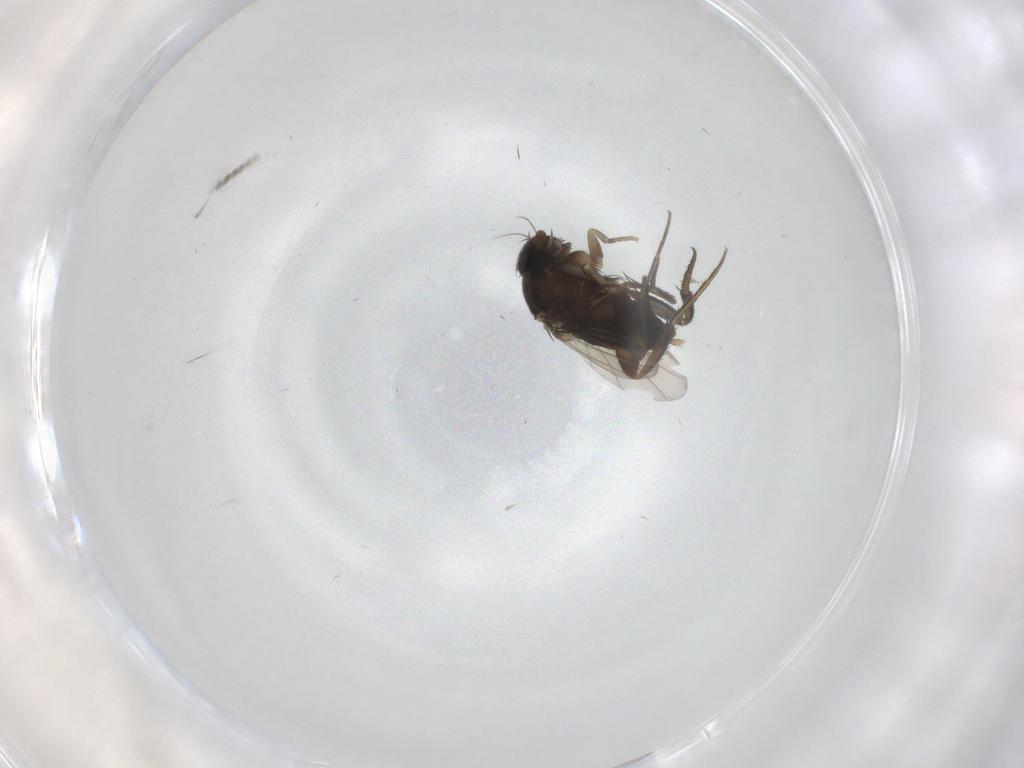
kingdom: Animalia
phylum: Arthropoda
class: Insecta
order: Diptera
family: Phoridae
